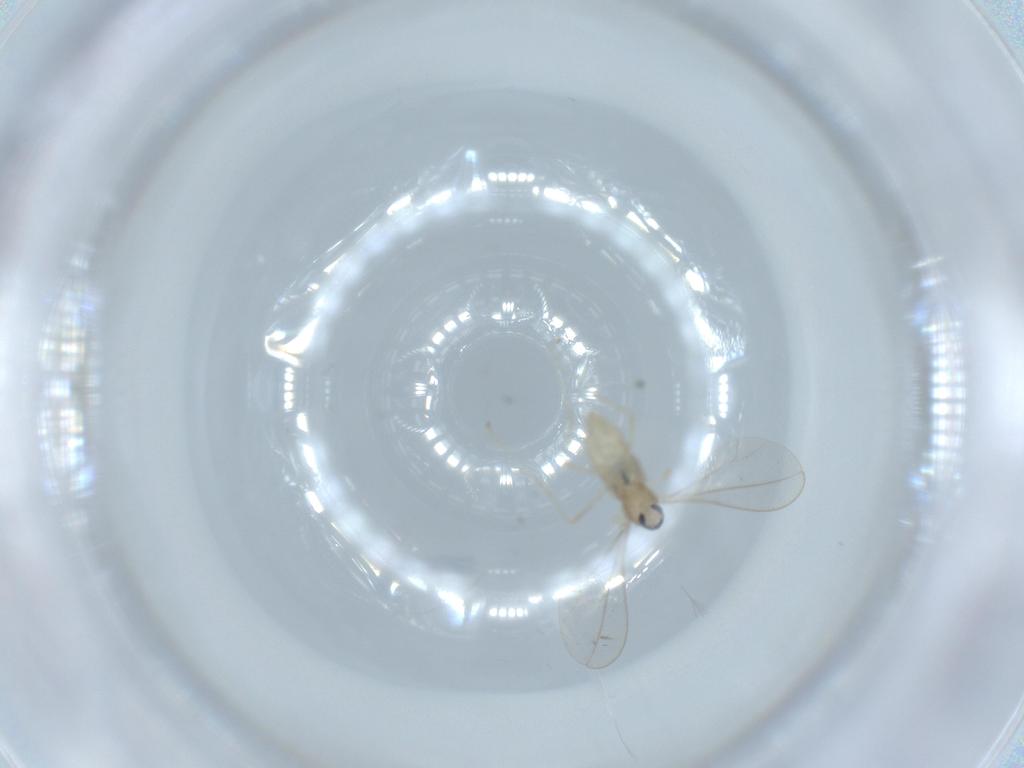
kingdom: Animalia
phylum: Arthropoda
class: Insecta
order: Diptera
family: Cecidomyiidae
